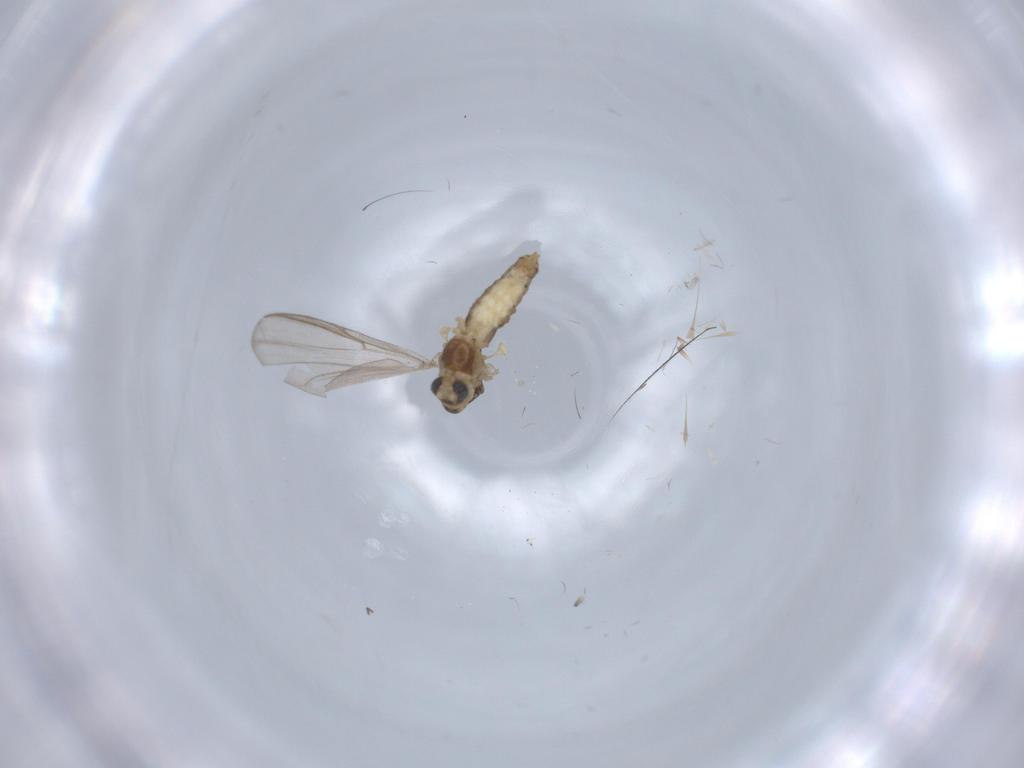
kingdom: Animalia
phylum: Arthropoda
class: Insecta
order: Diptera
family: Chironomidae
